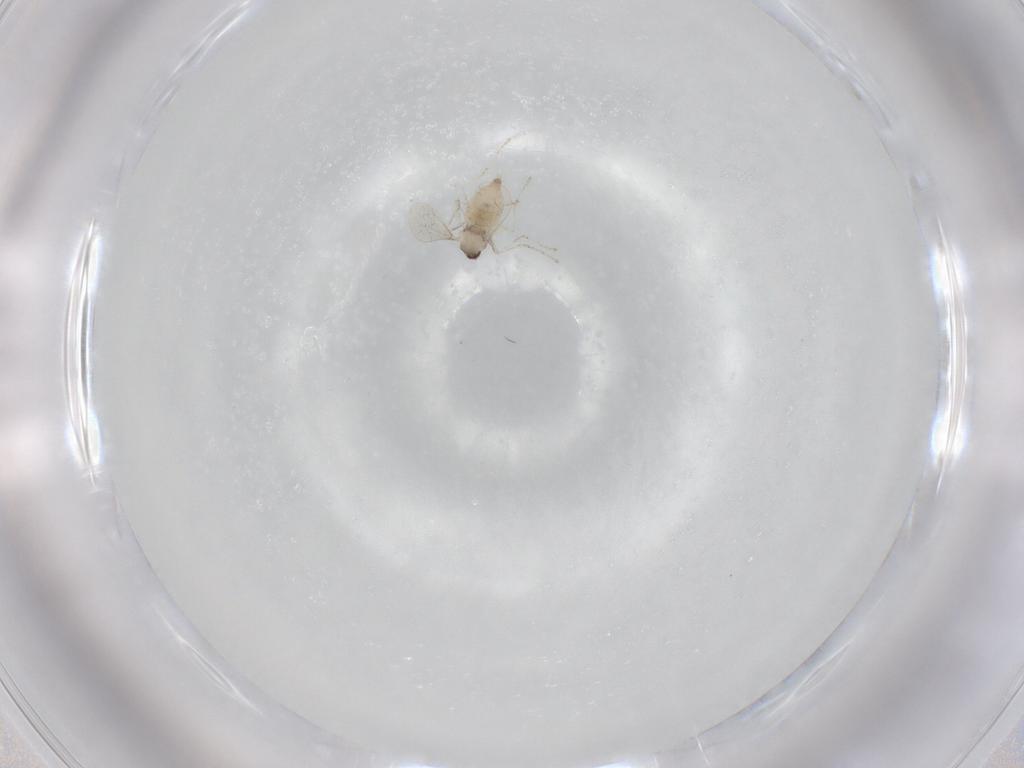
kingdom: Animalia
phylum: Arthropoda
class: Insecta
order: Diptera
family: Cecidomyiidae
